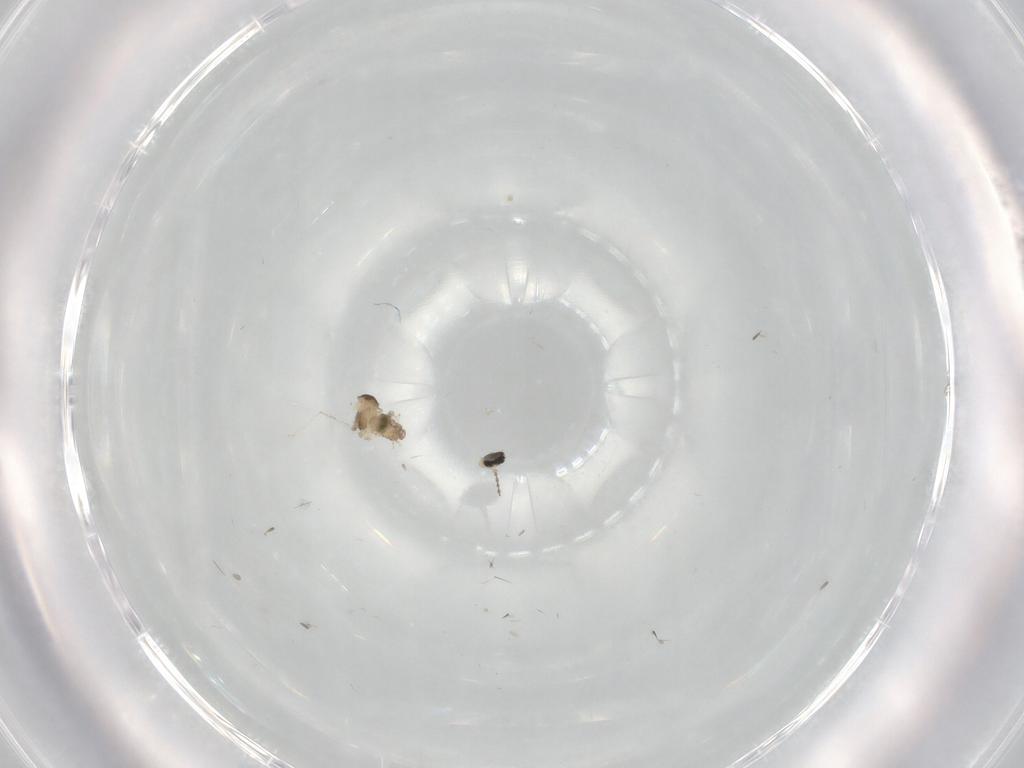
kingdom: Animalia
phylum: Arthropoda
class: Insecta
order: Diptera
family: Cecidomyiidae
